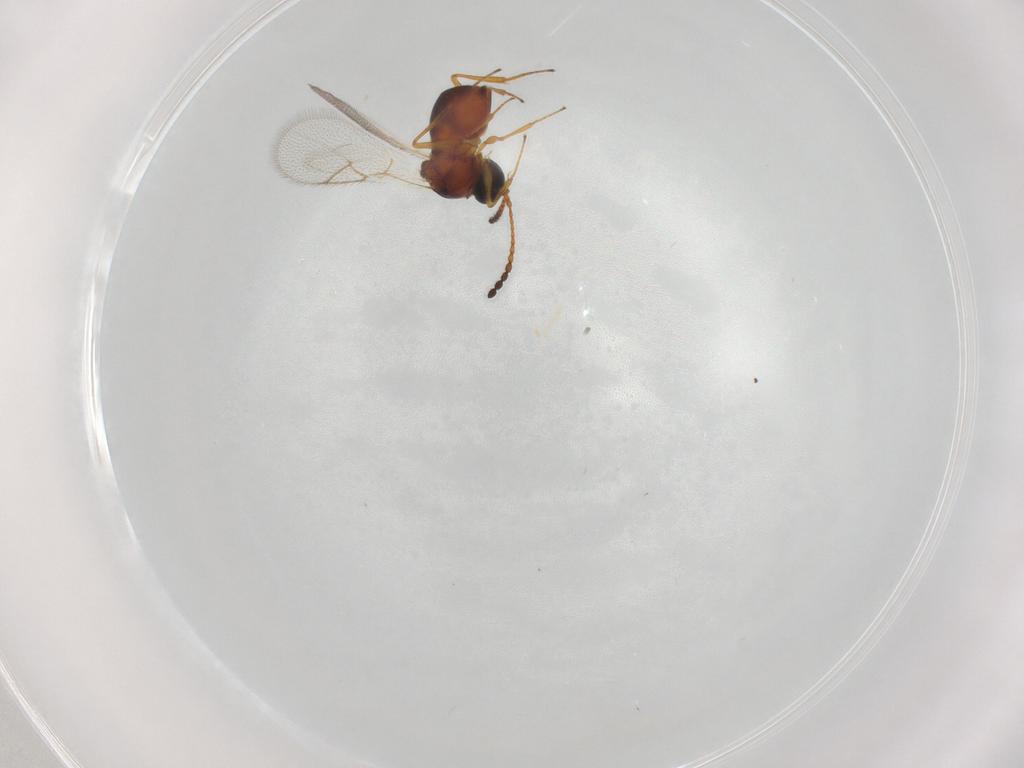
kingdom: Animalia
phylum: Arthropoda
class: Insecta
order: Hymenoptera
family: Figitidae
